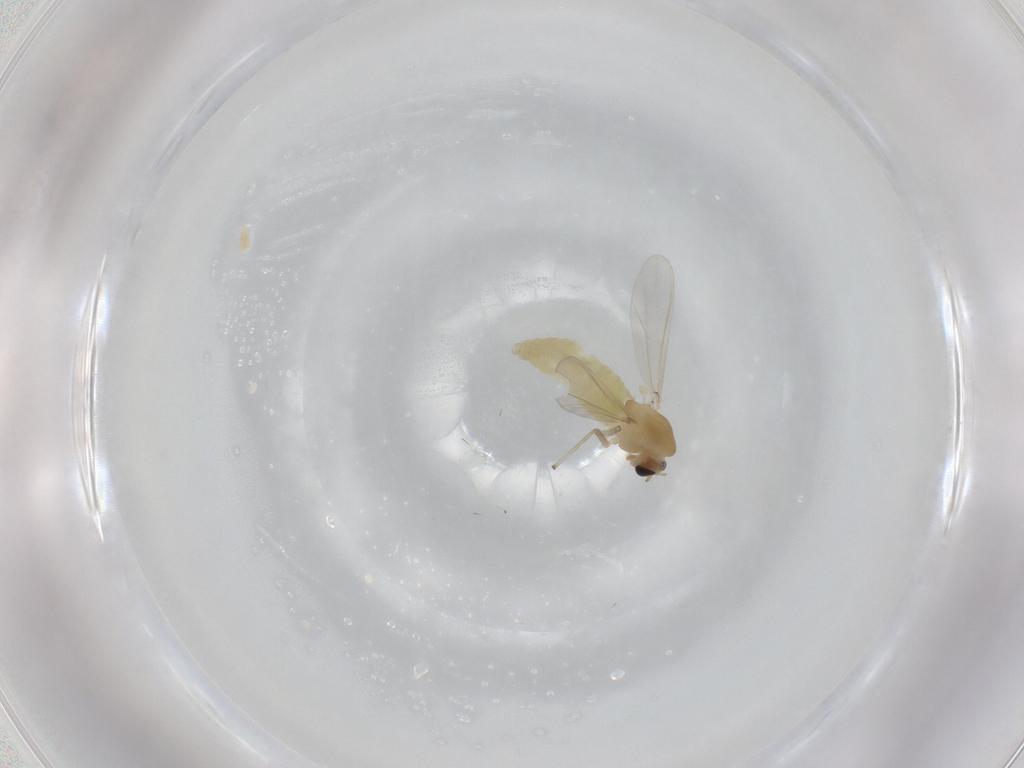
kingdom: Animalia
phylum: Arthropoda
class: Insecta
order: Diptera
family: Chironomidae
